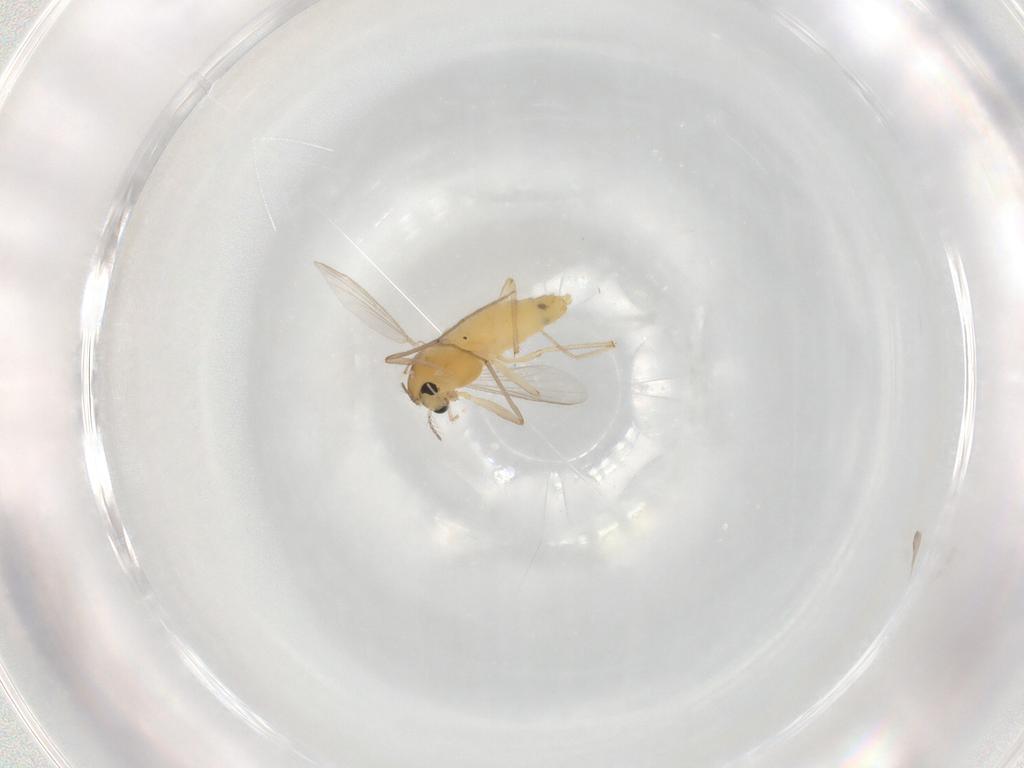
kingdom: Animalia
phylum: Arthropoda
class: Insecta
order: Diptera
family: Chironomidae
